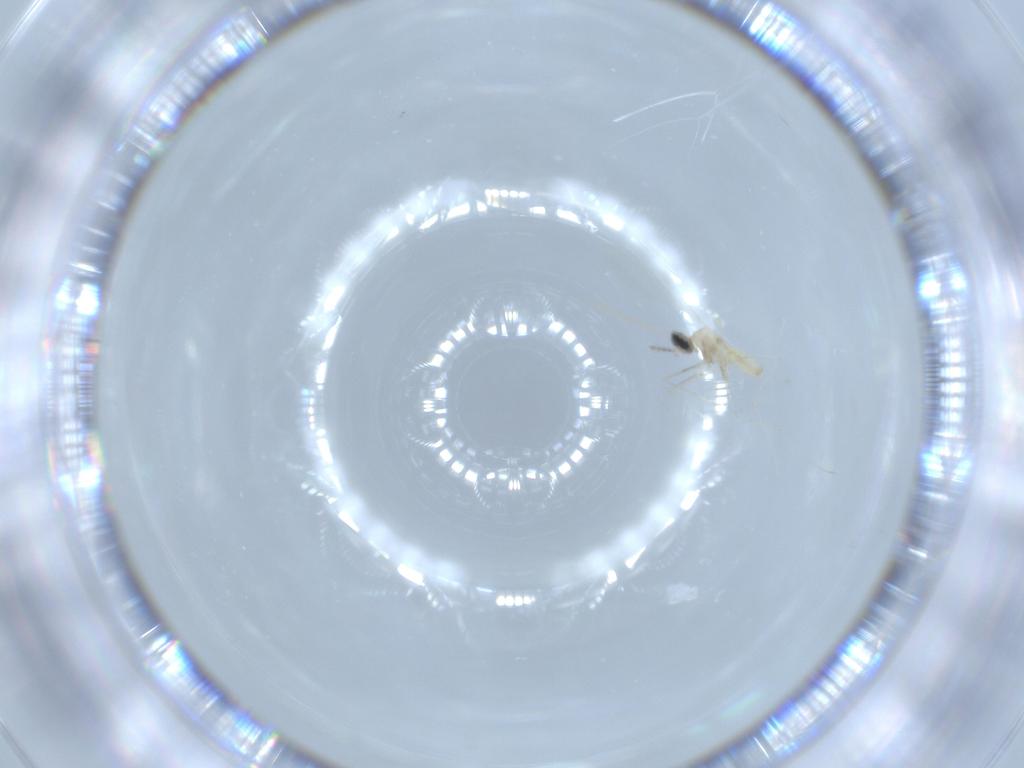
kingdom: Animalia
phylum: Arthropoda
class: Insecta
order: Diptera
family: Cecidomyiidae
